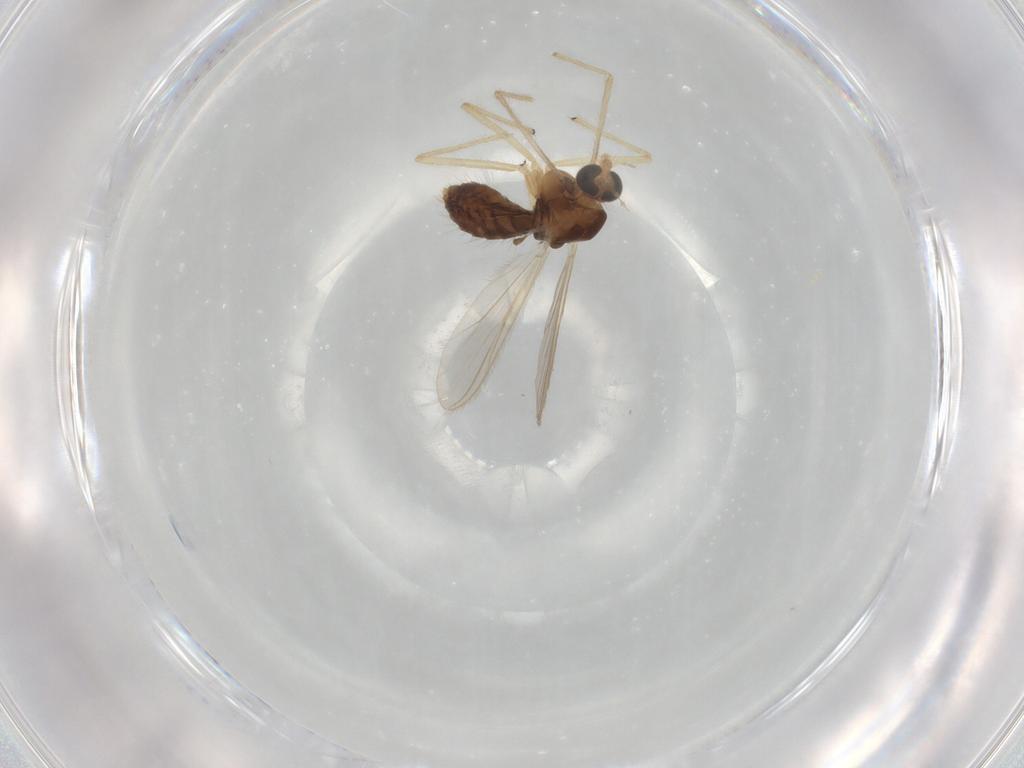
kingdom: Animalia
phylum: Arthropoda
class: Insecta
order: Diptera
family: Chironomidae
